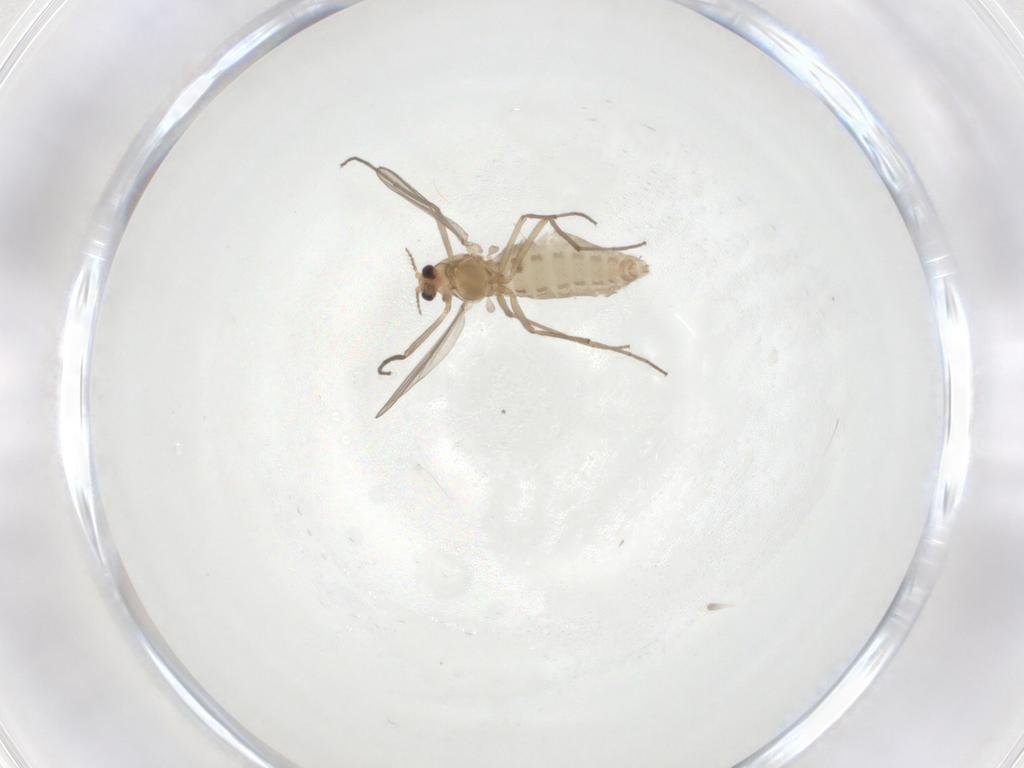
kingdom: Animalia
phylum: Arthropoda
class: Insecta
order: Diptera
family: Chironomidae
